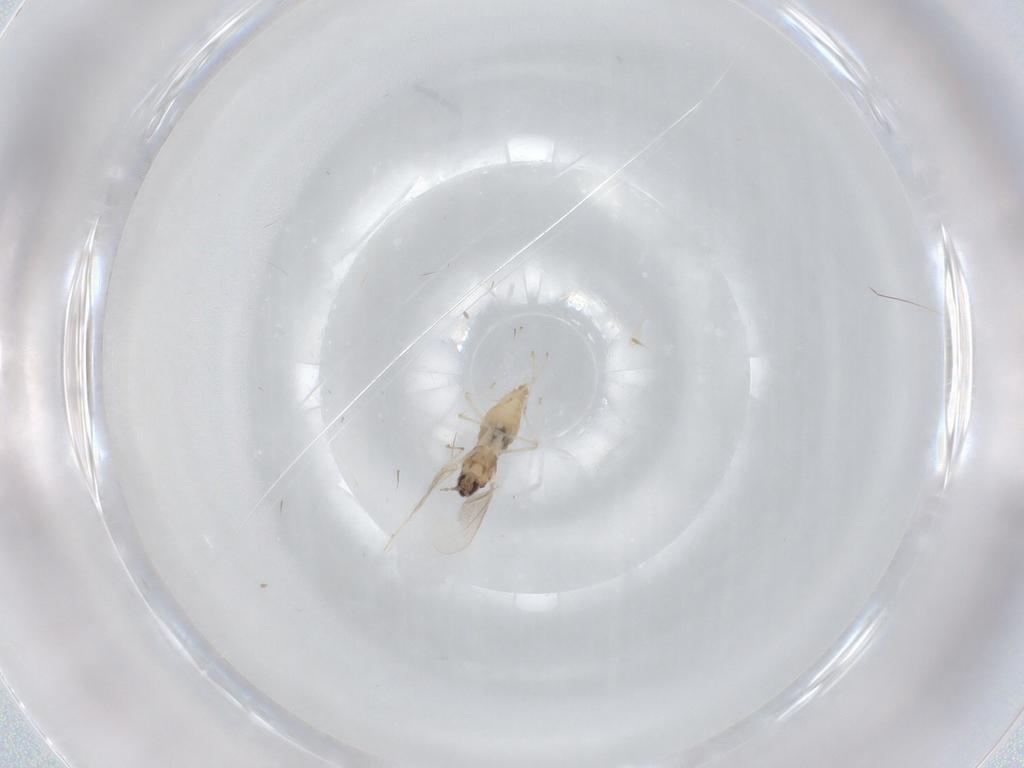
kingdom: Animalia
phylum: Arthropoda
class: Insecta
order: Diptera
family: Cecidomyiidae
